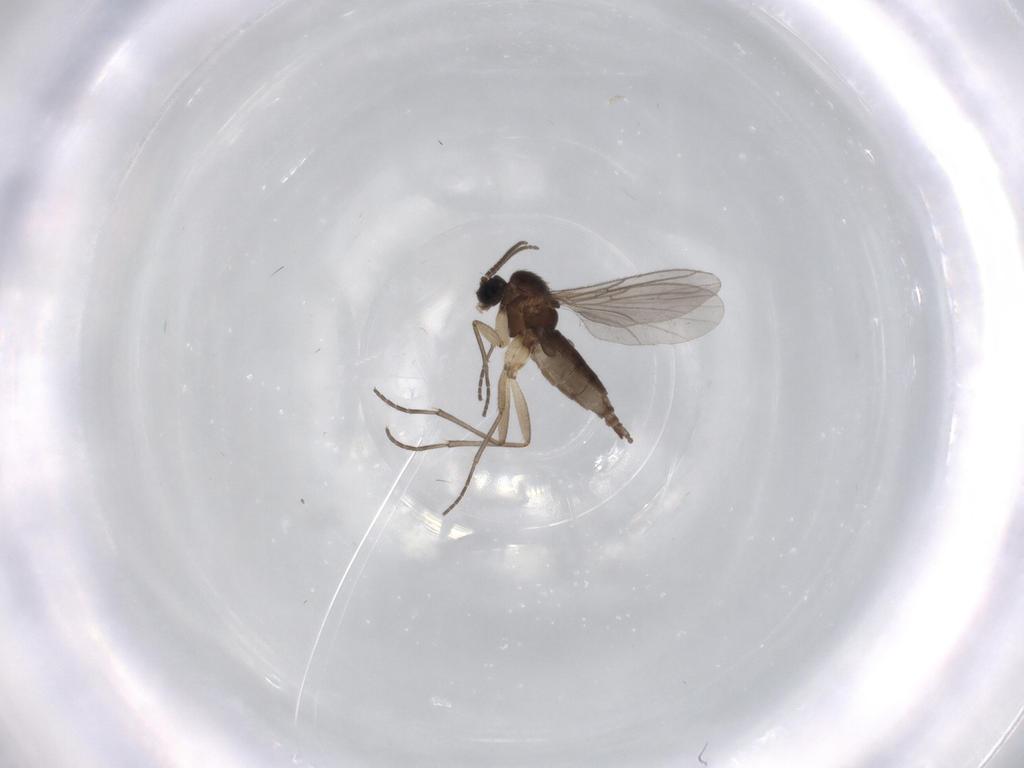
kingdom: Animalia
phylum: Arthropoda
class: Insecta
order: Diptera
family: Sciaridae
